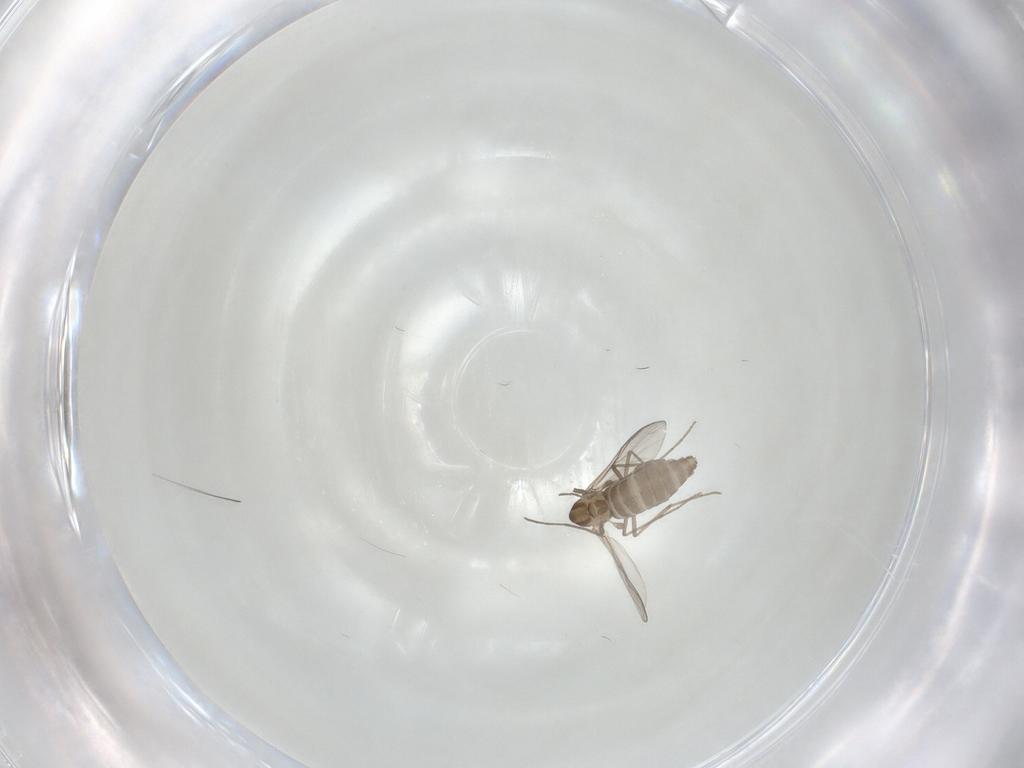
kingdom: Animalia
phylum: Arthropoda
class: Insecta
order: Diptera
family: Chironomidae
